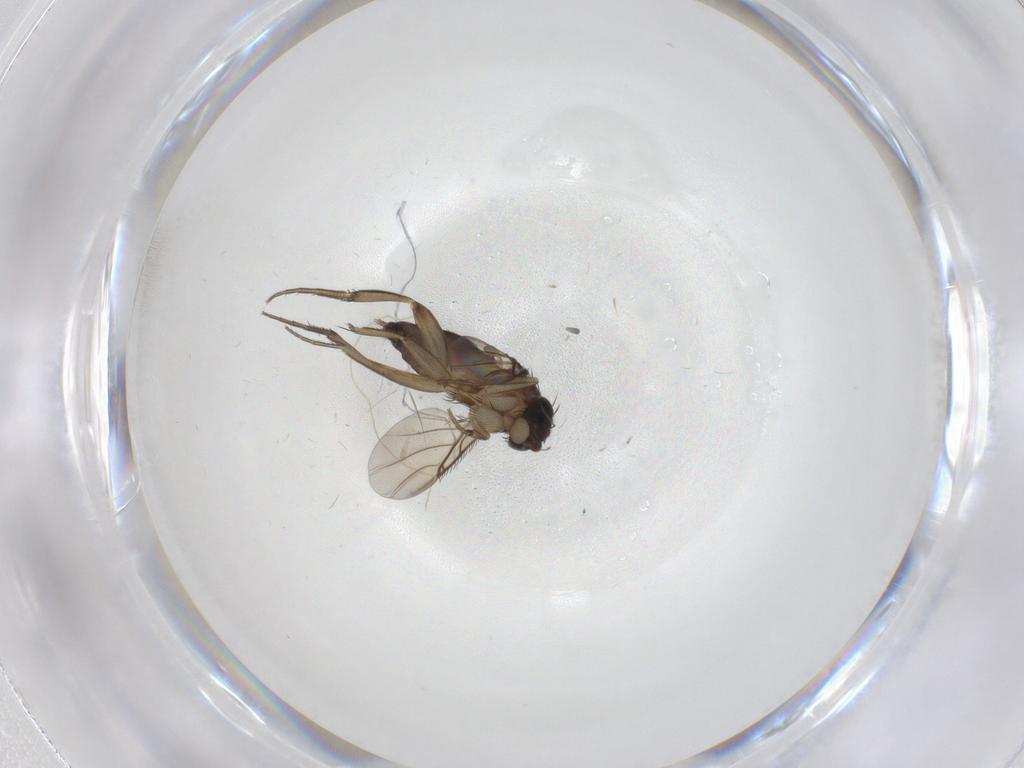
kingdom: Animalia
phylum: Arthropoda
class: Insecta
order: Diptera
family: Phoridae
